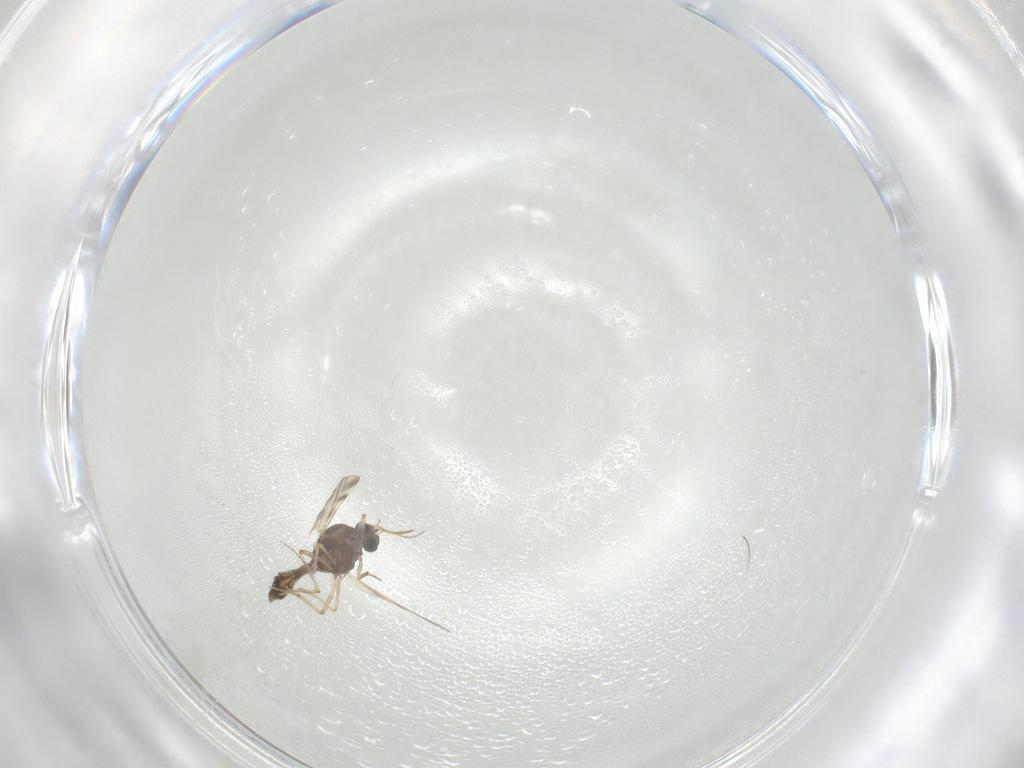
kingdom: Animalia
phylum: Arthropoda
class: Insecta
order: Diptera
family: Ceratopogonidae
